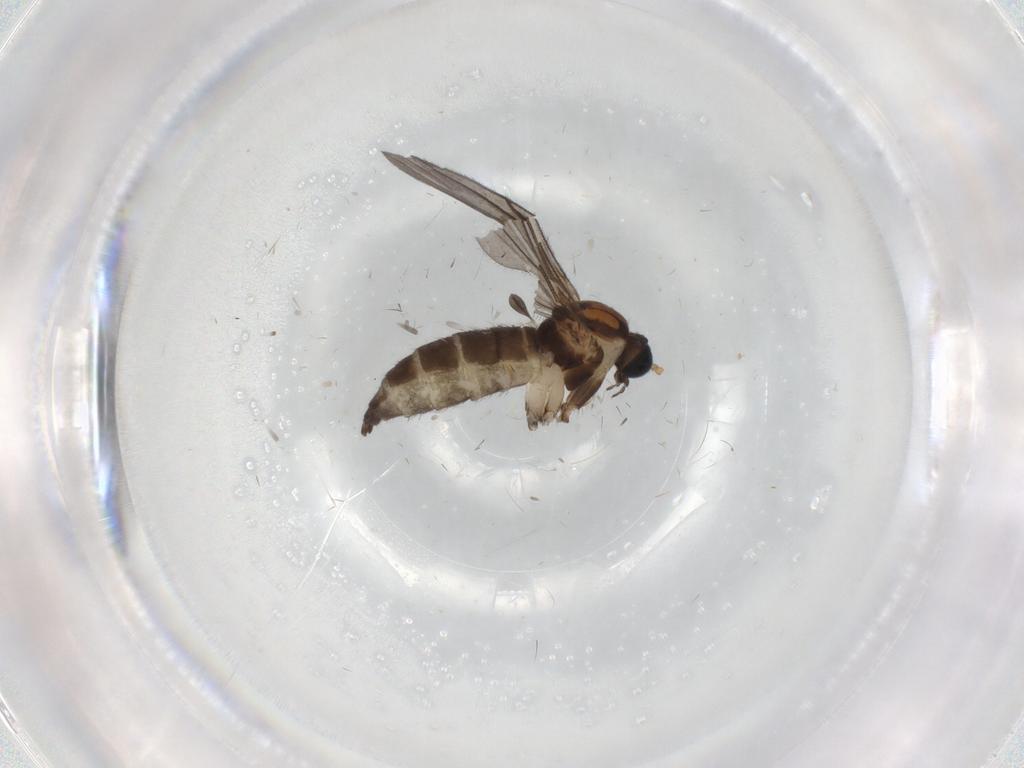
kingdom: Animalia
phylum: Arthropoda
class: Insecta
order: Diptera
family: Sciaridae
